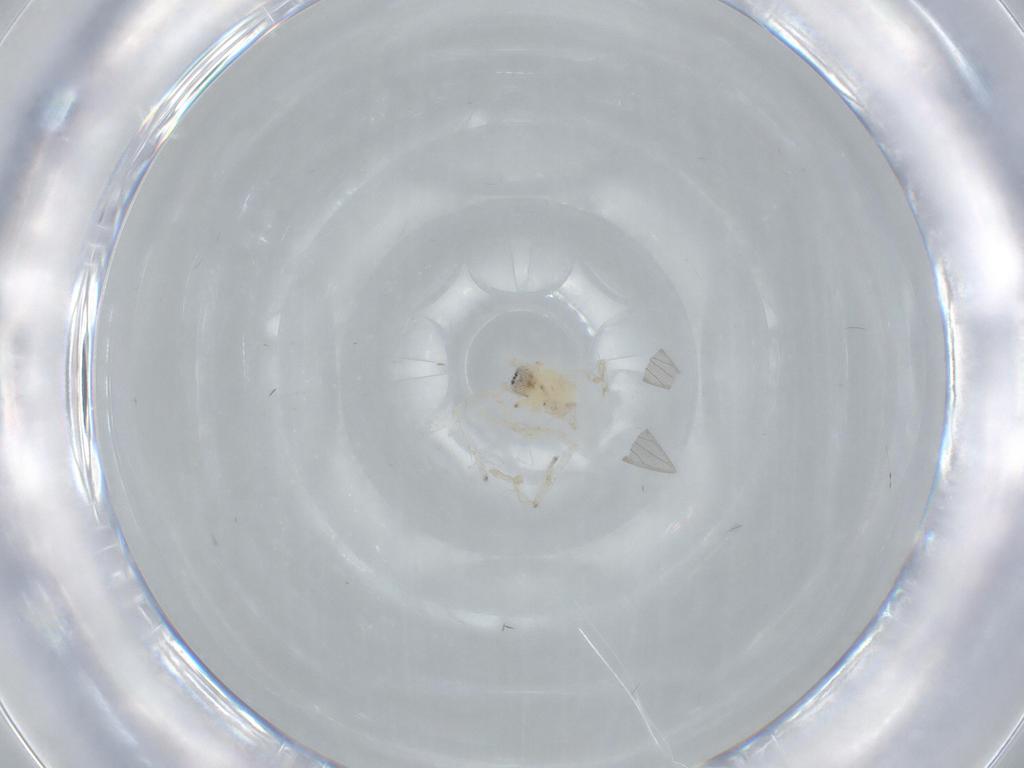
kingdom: Animalia
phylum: Arthropoda
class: Arachnida
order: Araneae
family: Anyphaenidae
